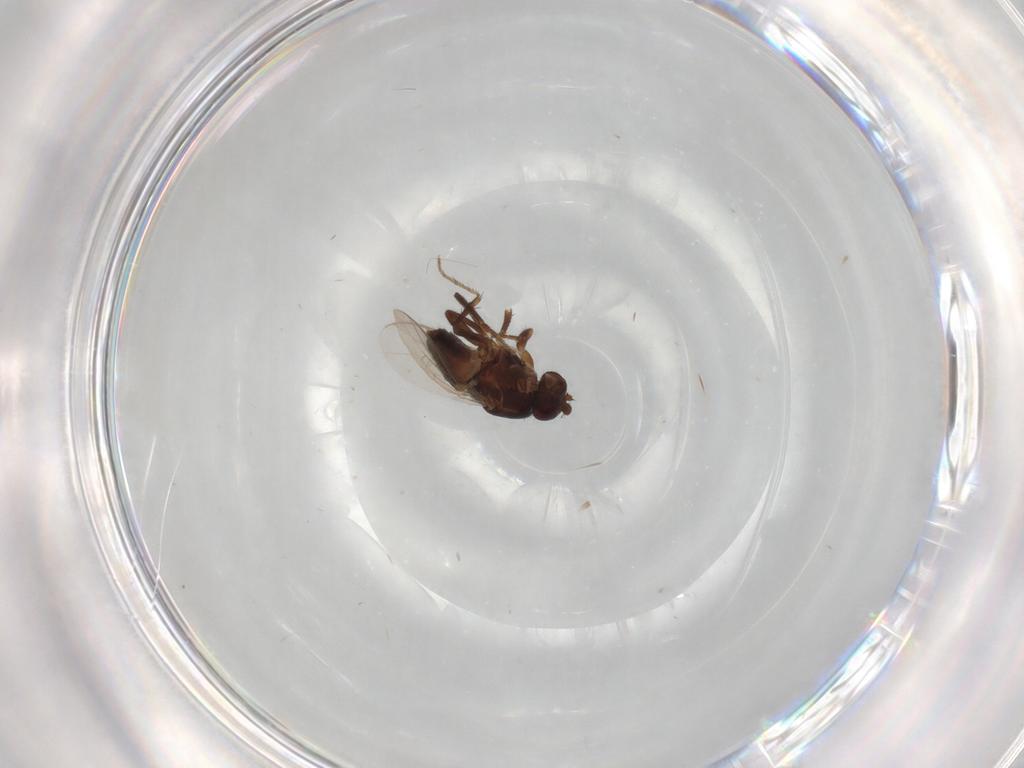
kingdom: Animalia
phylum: Arthropoda
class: Insecta
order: Diptera
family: Sphaeroceridae
